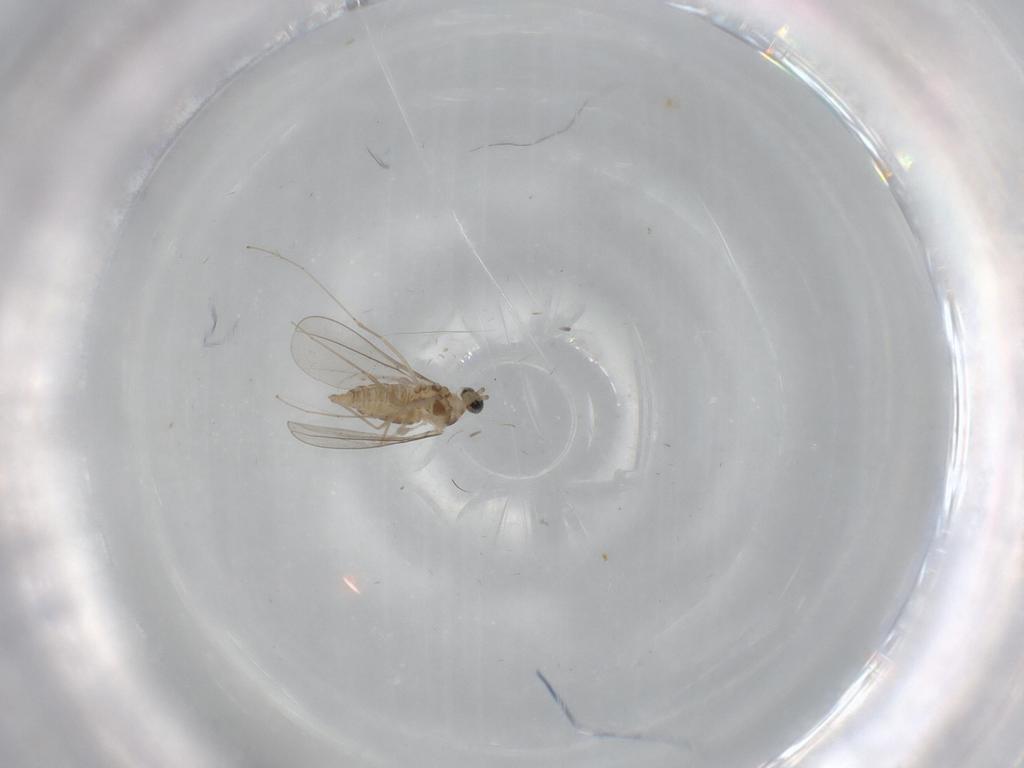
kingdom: Animalia
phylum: Arthropoda
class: Insecta
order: Diptera
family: Cecidomyiidae
